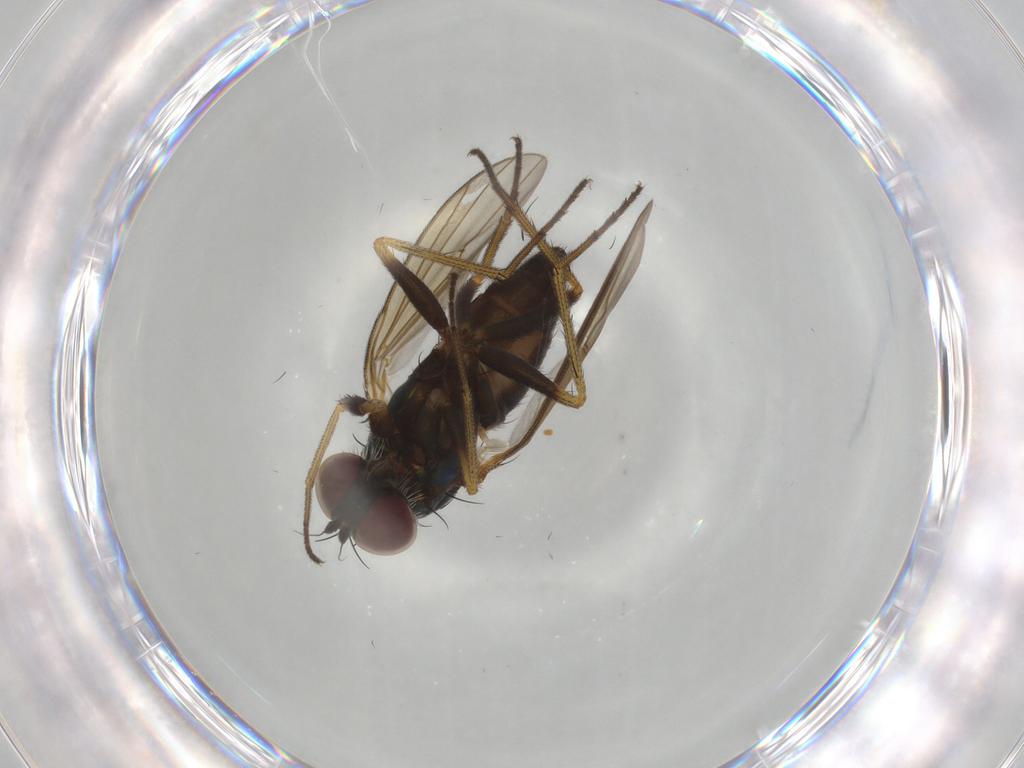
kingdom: Animalia
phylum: Arthropoda
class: Insecta
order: Diptera
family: Dolichopodidae
